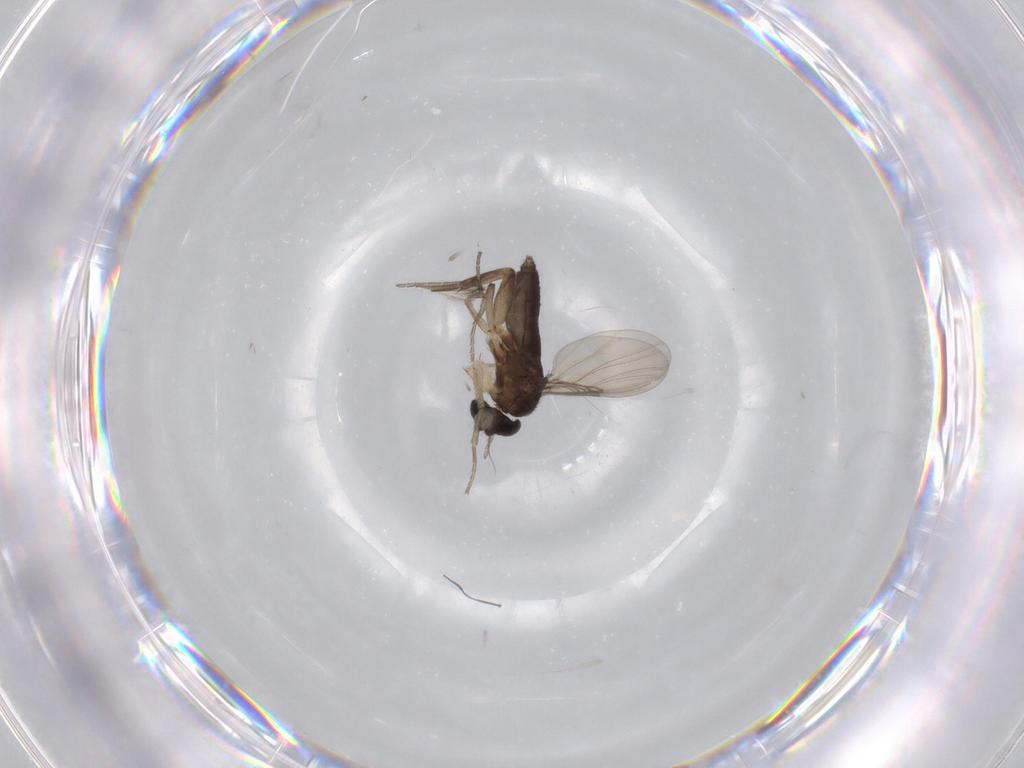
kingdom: Animalia
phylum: Arthropoda
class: Insecta
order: Diptera
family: Phoridae
